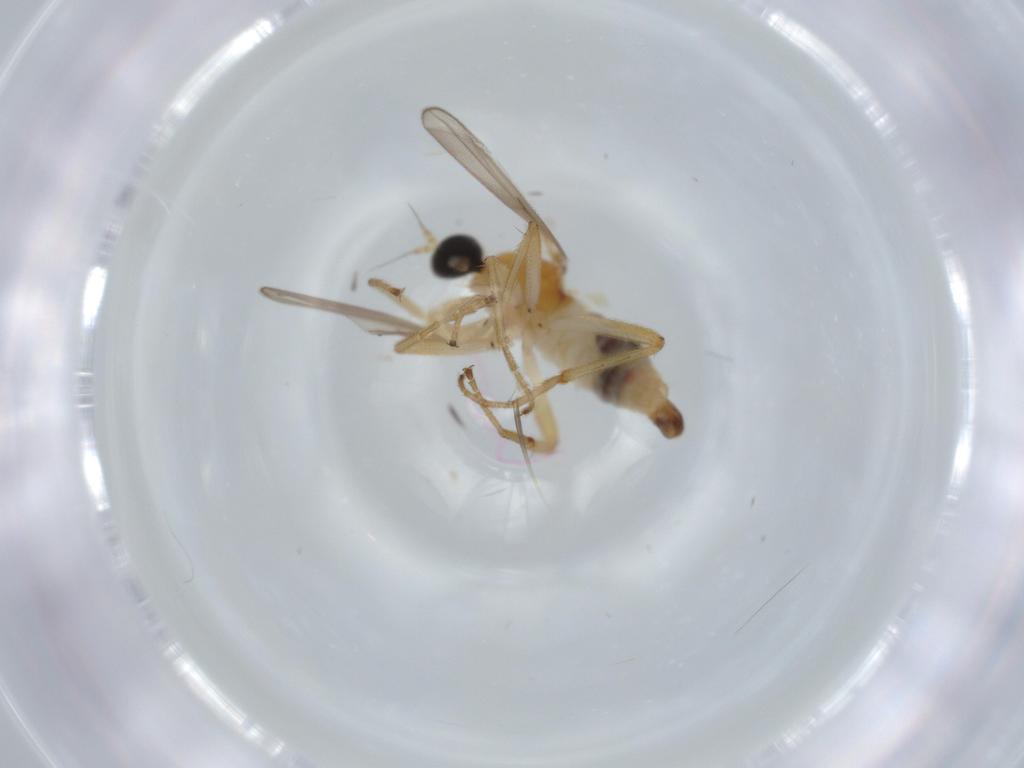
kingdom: Animalia
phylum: Arthropoda
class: Insecta
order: Diptera
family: Hybotidae
